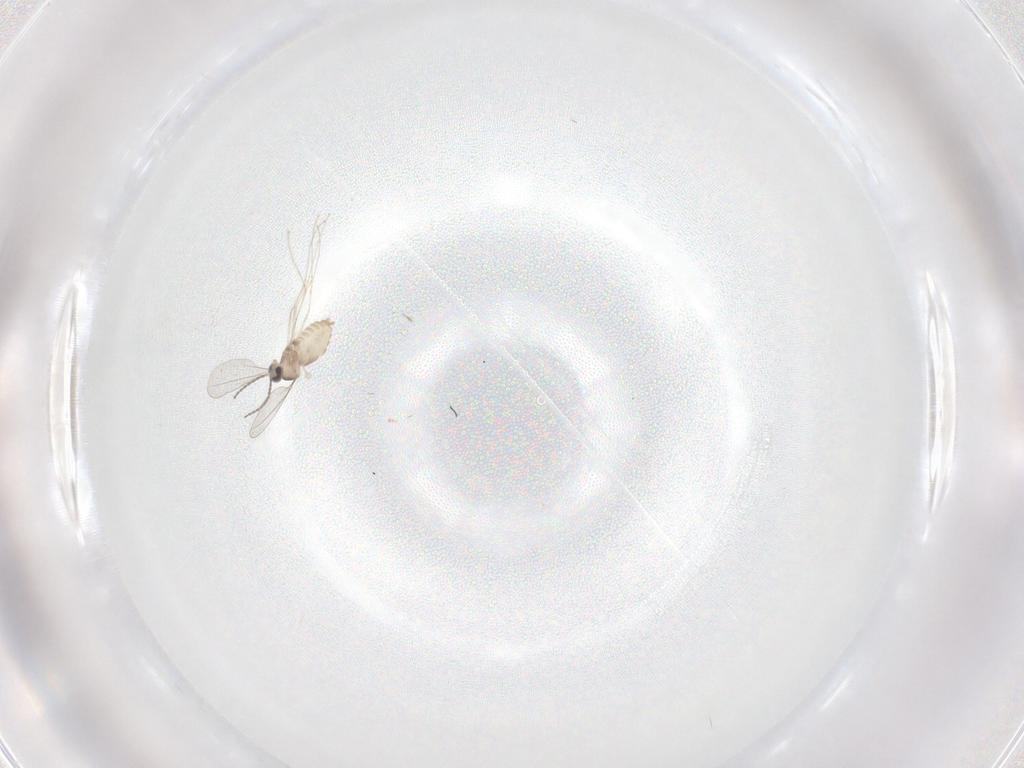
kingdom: Animalia
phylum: Arthropoda
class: Insecta
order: Diptera
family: Cecidomyiidae
